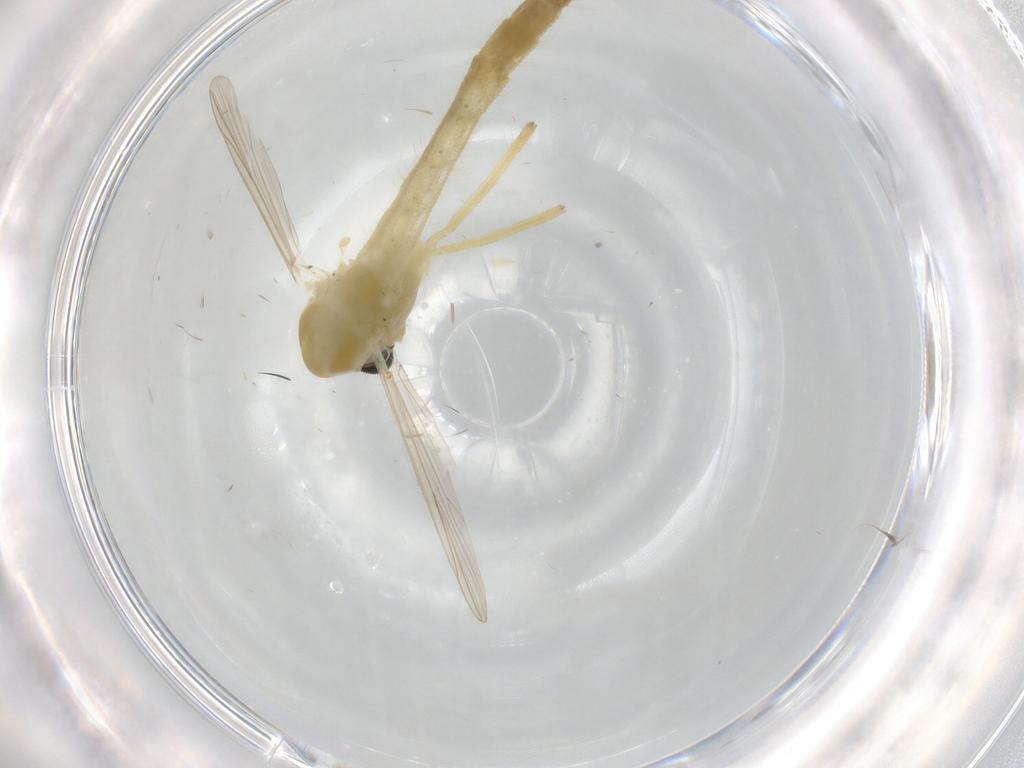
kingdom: Animalia
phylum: Arthropoda
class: Insecta
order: Diptera
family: Chironomidae
